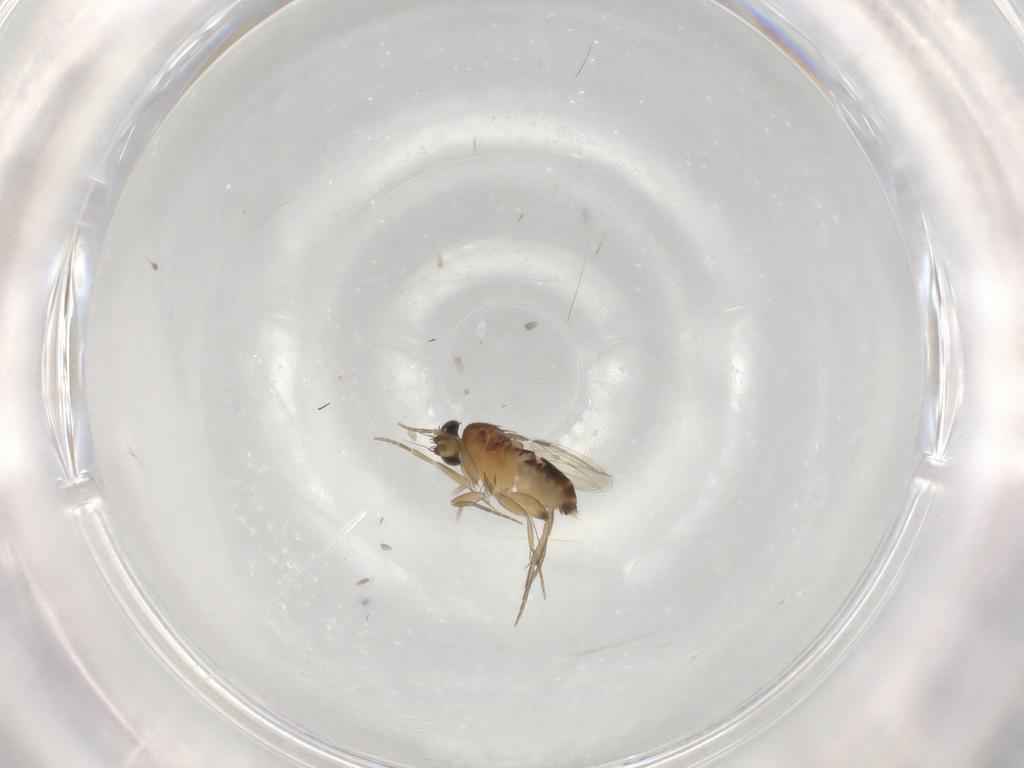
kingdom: Animalia
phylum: Arthropoda
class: Insecta
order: Diptera
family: Phoridae
